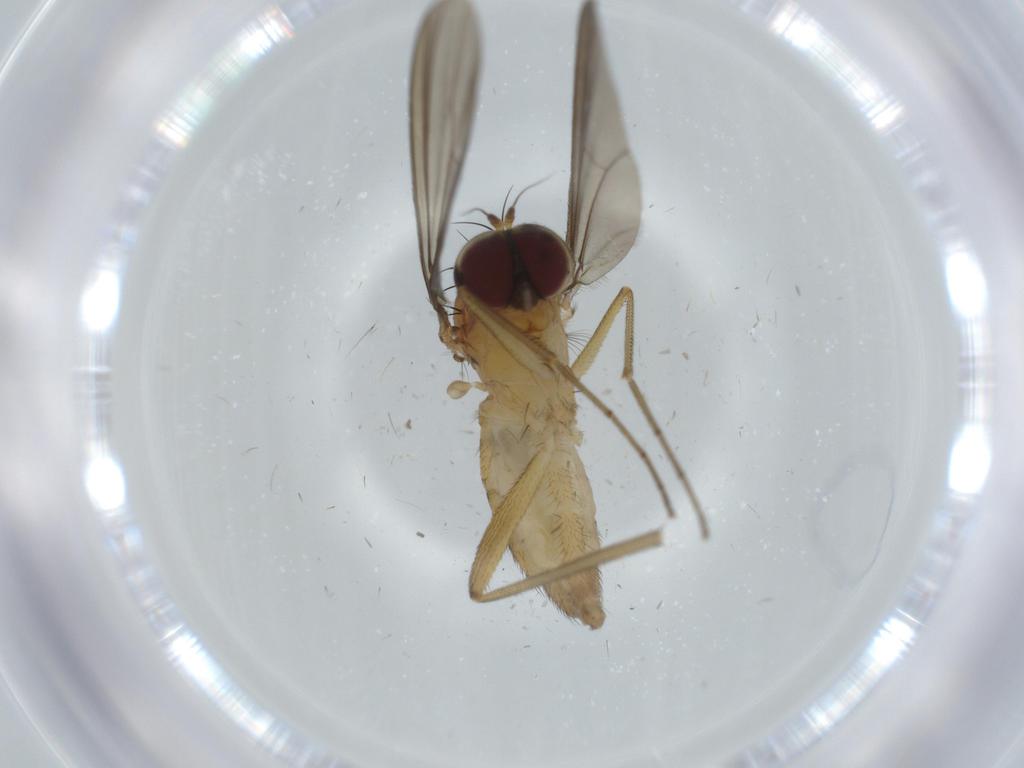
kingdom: Animalia
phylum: Arthropoda
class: Insecta
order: Diptera
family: Dolichopodidae
